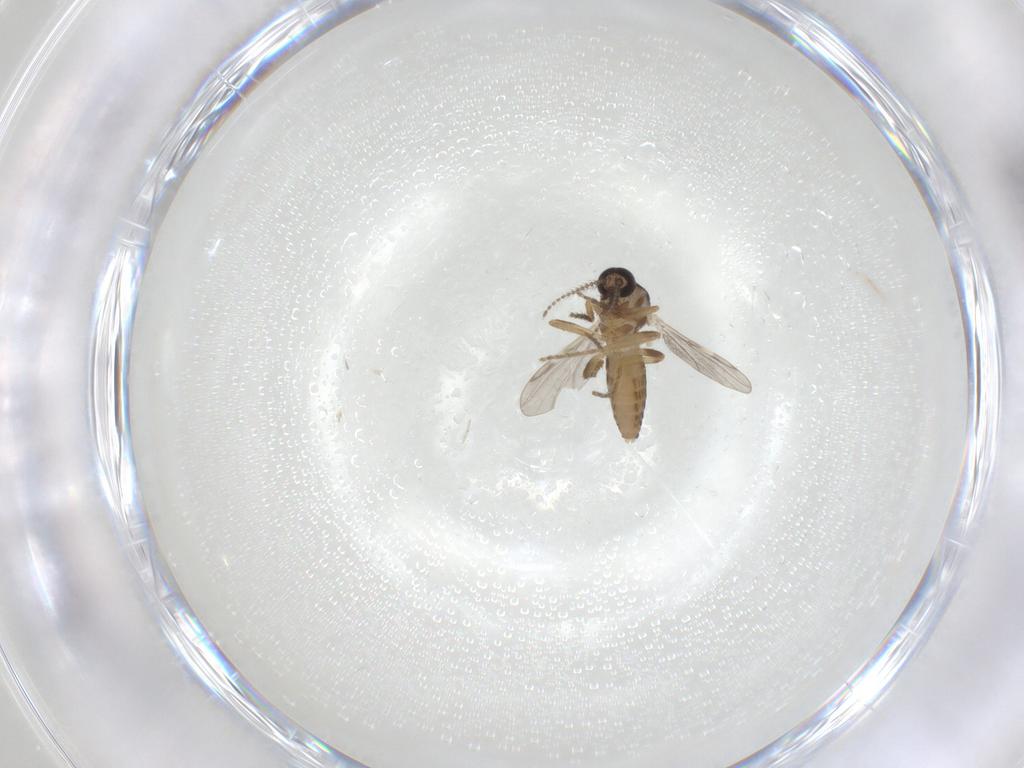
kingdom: Animalia
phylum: Arthropoda
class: Insecta
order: Diptera
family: Ceratopogonidae
